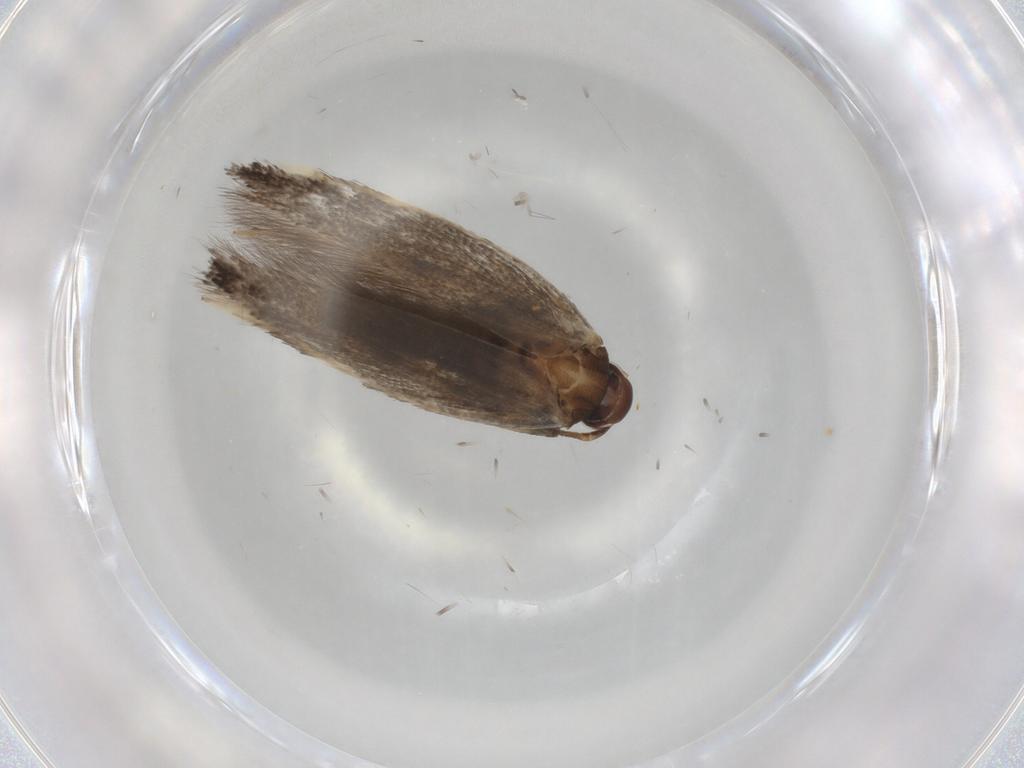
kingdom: Animalia
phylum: Arthropoda
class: Insecta
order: Lepidoptera
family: Cosmopterigidae
